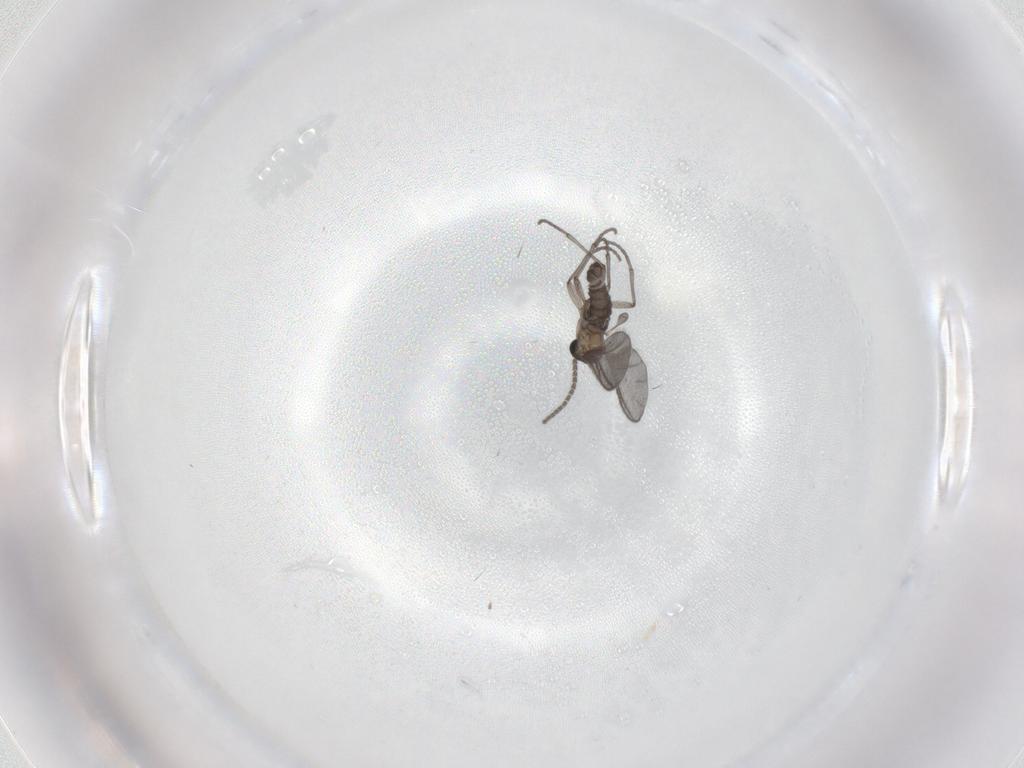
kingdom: Animalia
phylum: Arthropoda
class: Insecta
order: Diptera
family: Sciaridae
